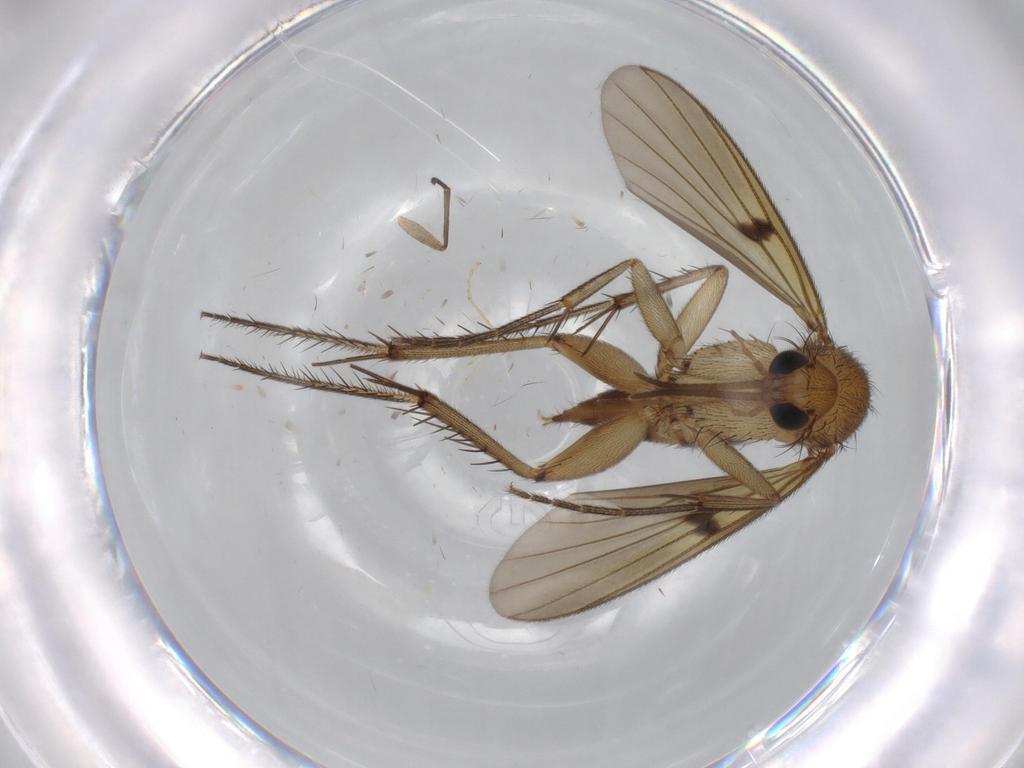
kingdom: Animalia
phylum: Arthropoda
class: Insecta
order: Diptera
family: Mycetophilidae
